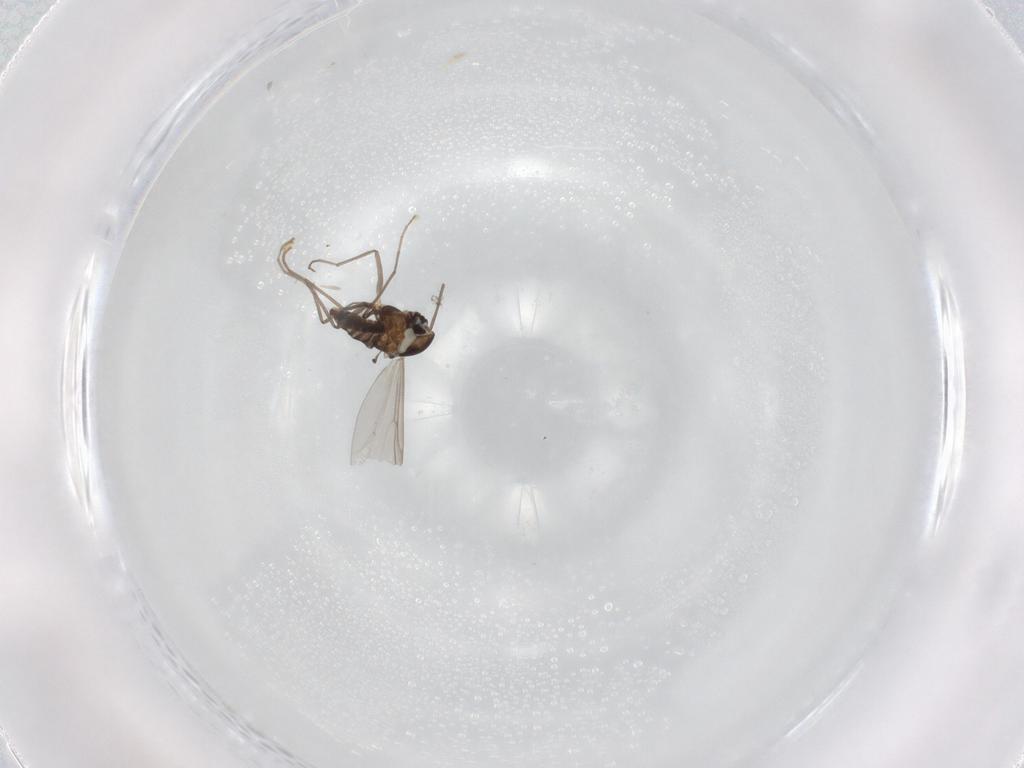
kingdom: Animalia
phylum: Arthropoda
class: Insecta
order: Diptera
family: Chironomidae
